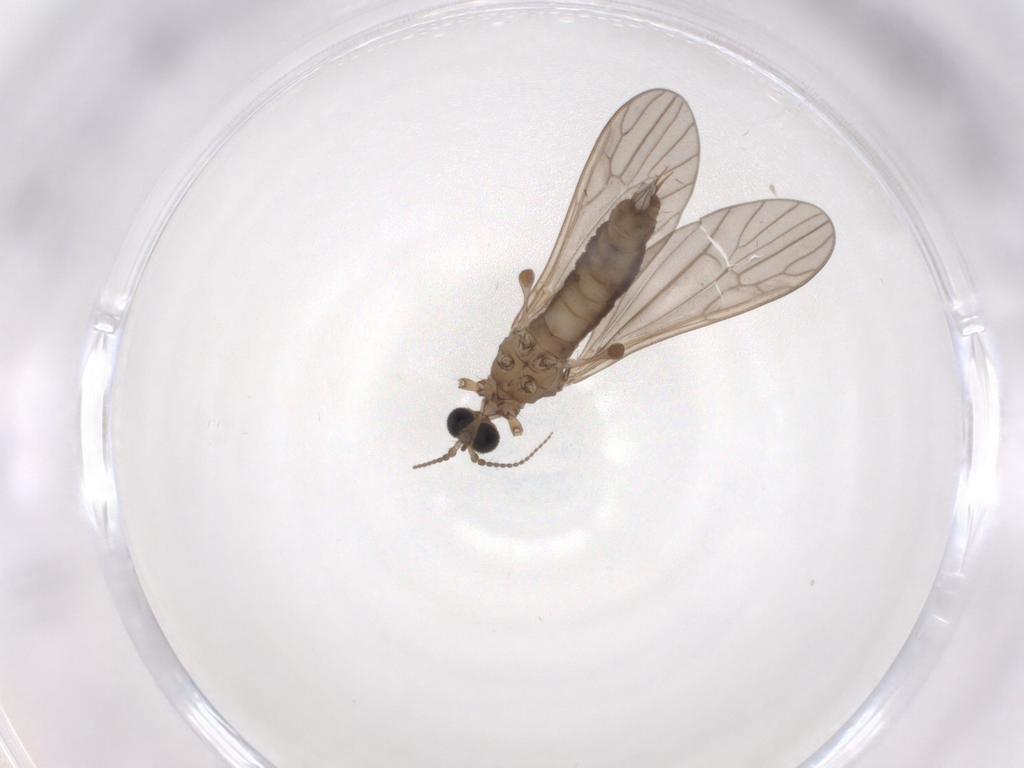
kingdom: Animalia
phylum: Arthropoda
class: Insecta
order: Diptera
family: Limoniidae
